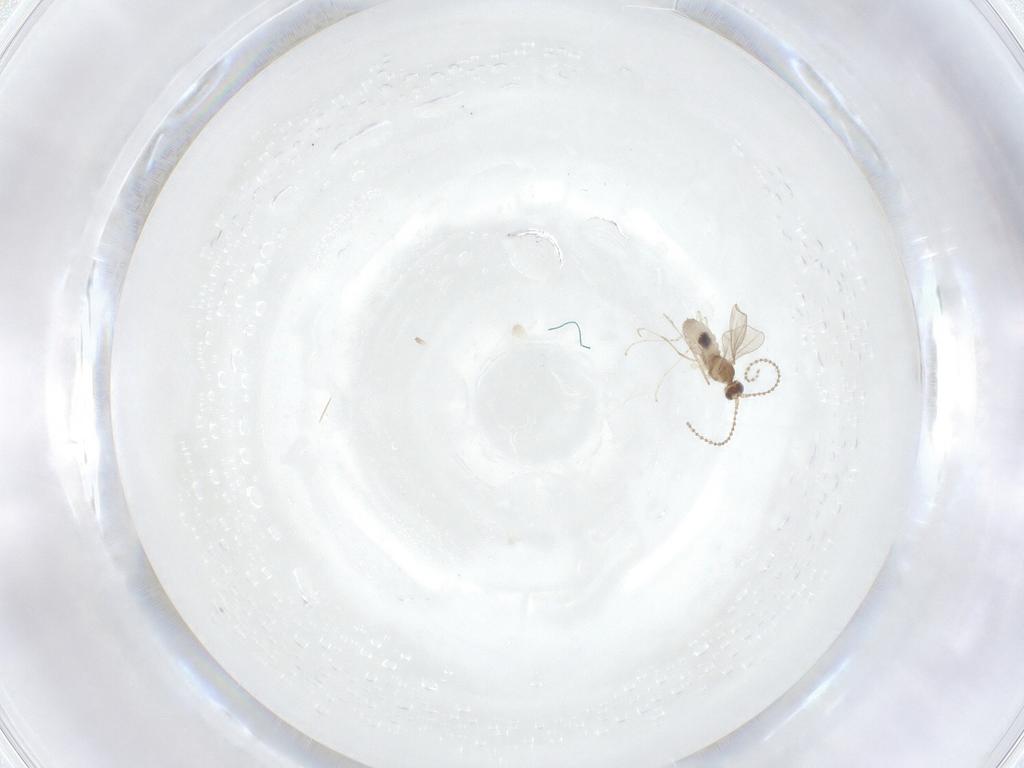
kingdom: Animalia
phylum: Arthropoda
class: Insecta
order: Diptera
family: Cecidomyiidae
